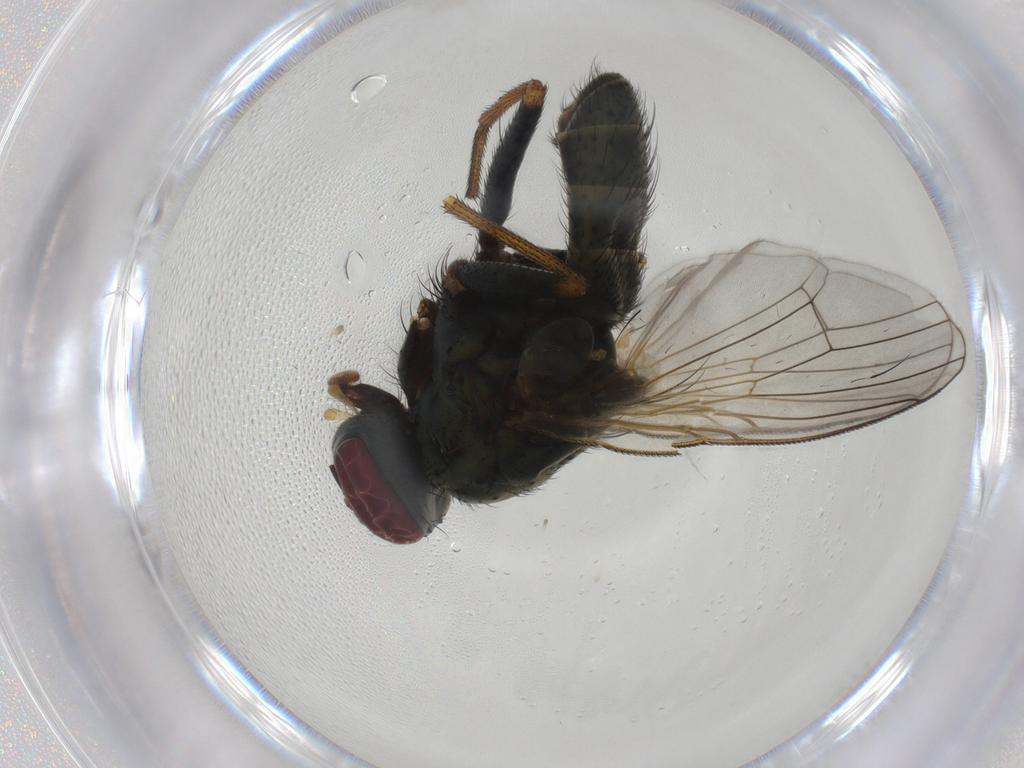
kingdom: Animalia
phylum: Arthropoda
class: Insecta
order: Diptera
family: Muscidae
